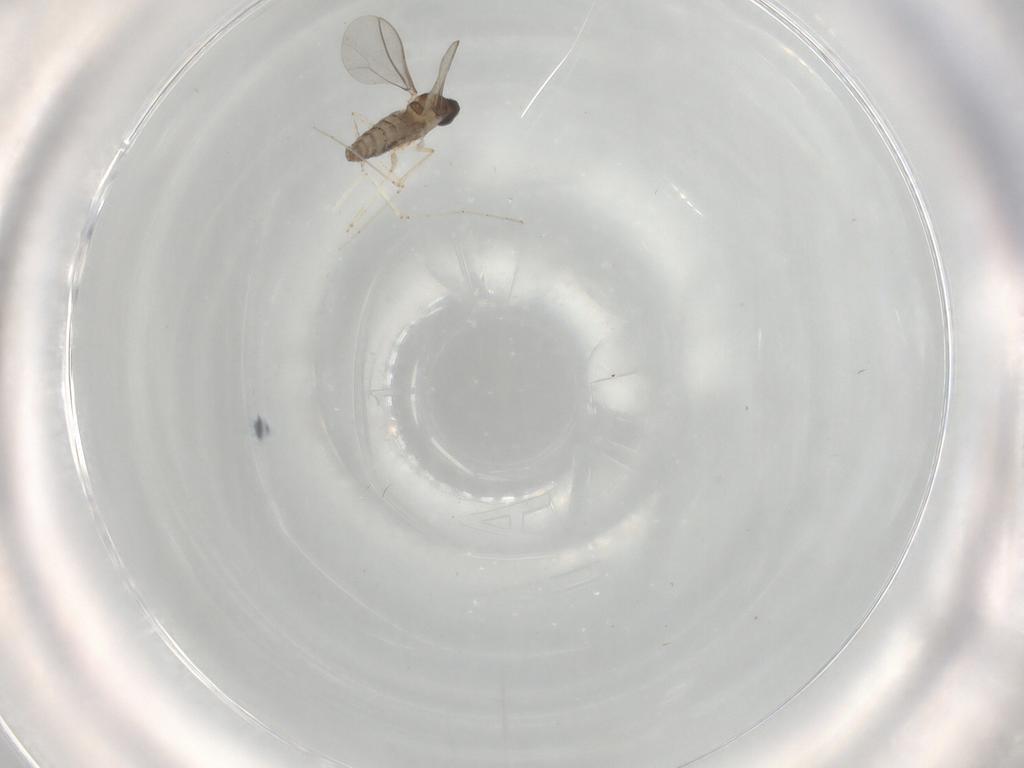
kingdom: Animalia
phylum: Arthropoda
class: Insecta
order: Diptera
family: Cecidomyiidae
